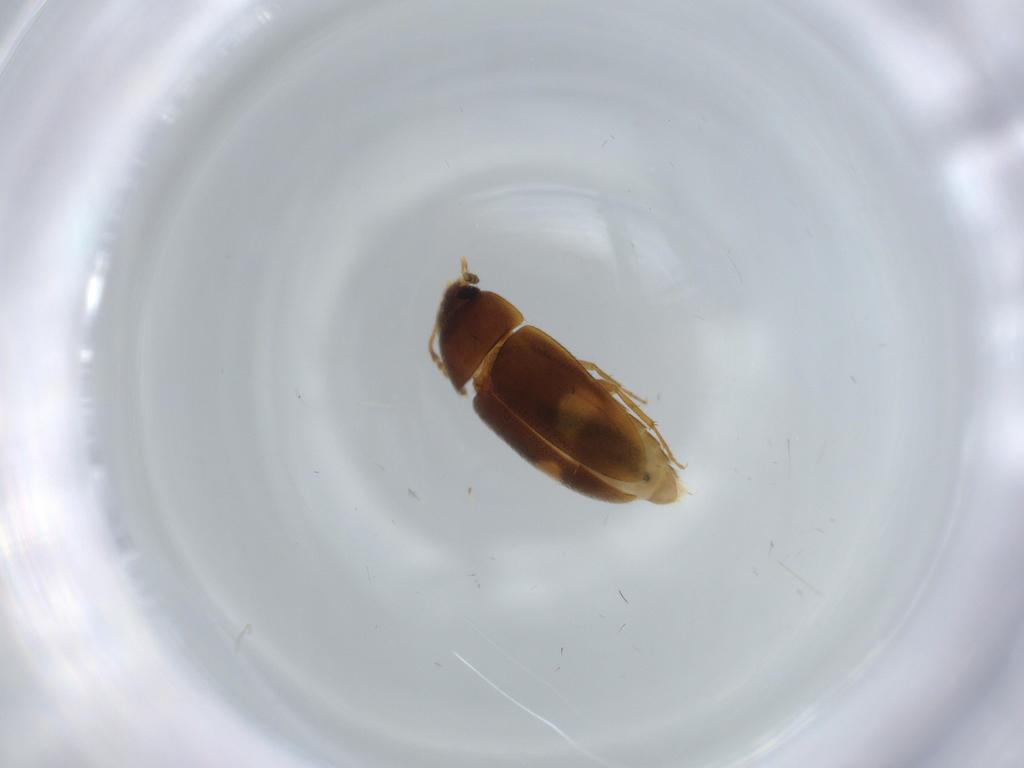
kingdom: Animalia
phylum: Arthropoda
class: Insecta
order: Coleoptera
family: Mycetophagidae
